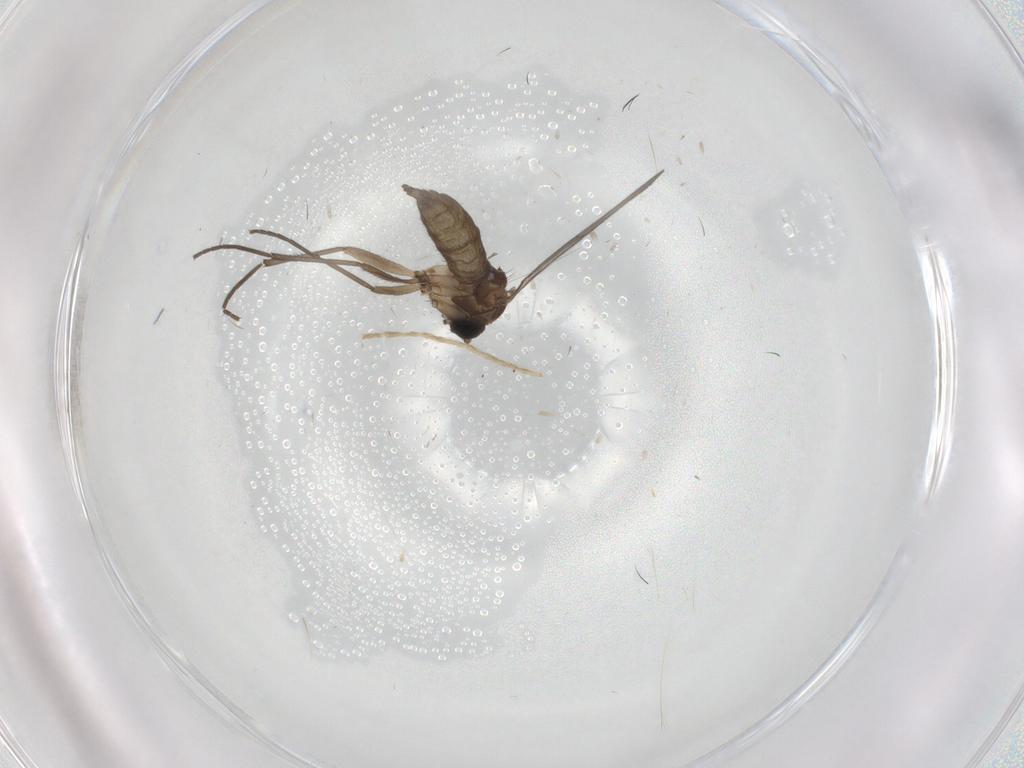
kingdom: Animalia
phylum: Arthropoda
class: Insecta
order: Diptera
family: Sciaridae
